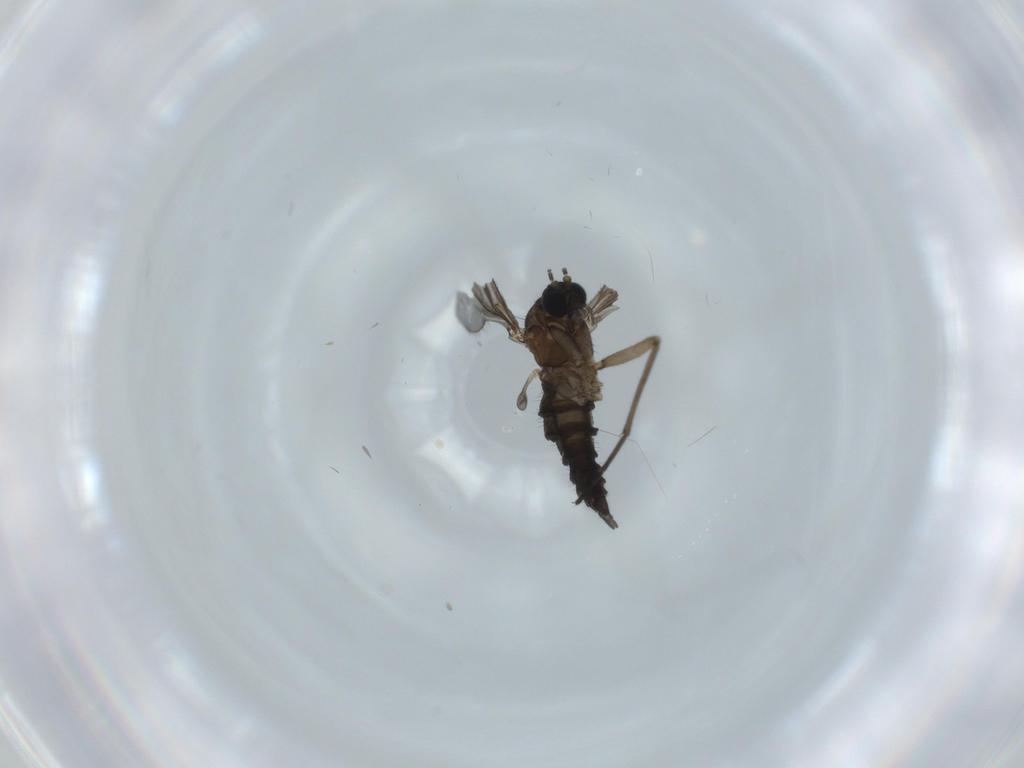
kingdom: Animalia
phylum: Arthropoda
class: Insecta
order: Diptera
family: Sciaridae
